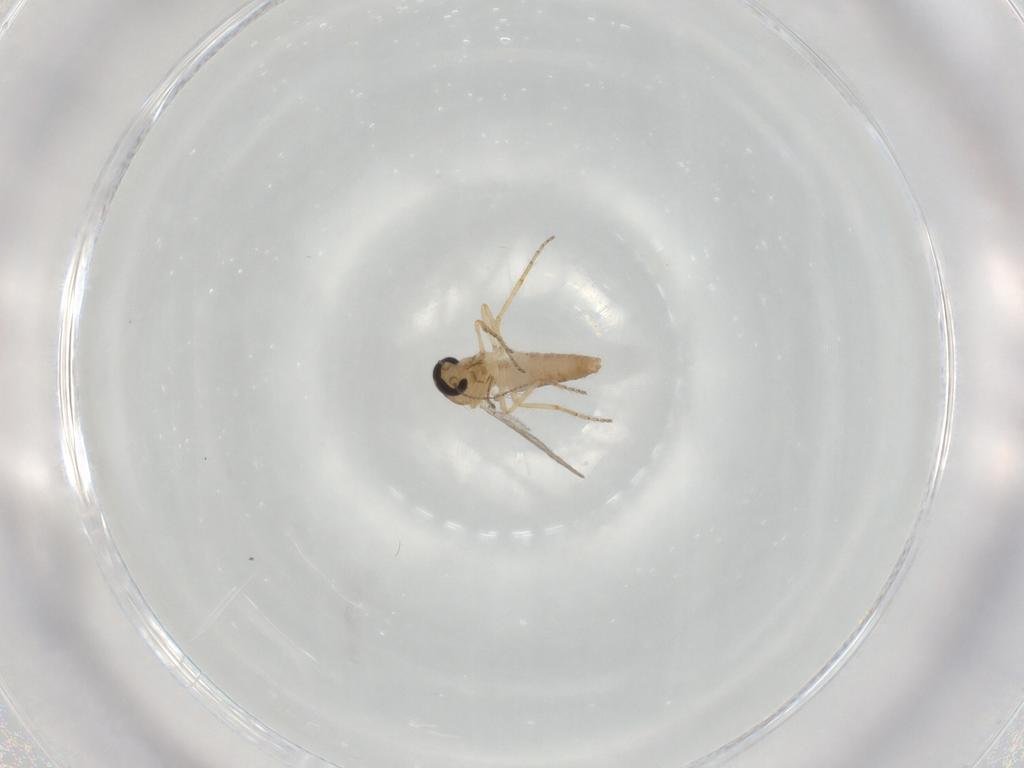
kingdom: Animalia
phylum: Arthropoda
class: Insecta
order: Diptera
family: Ceratopogonidae
